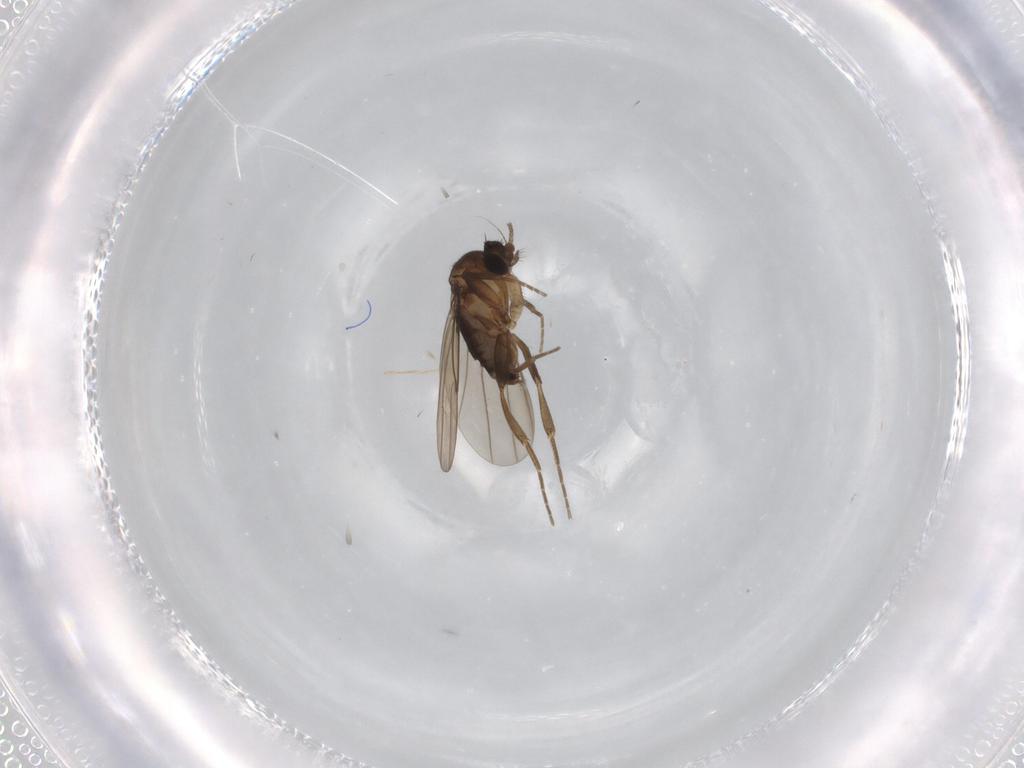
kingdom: Animalia
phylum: Arthropoda
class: Insecta
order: Diptera
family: Phoridae
